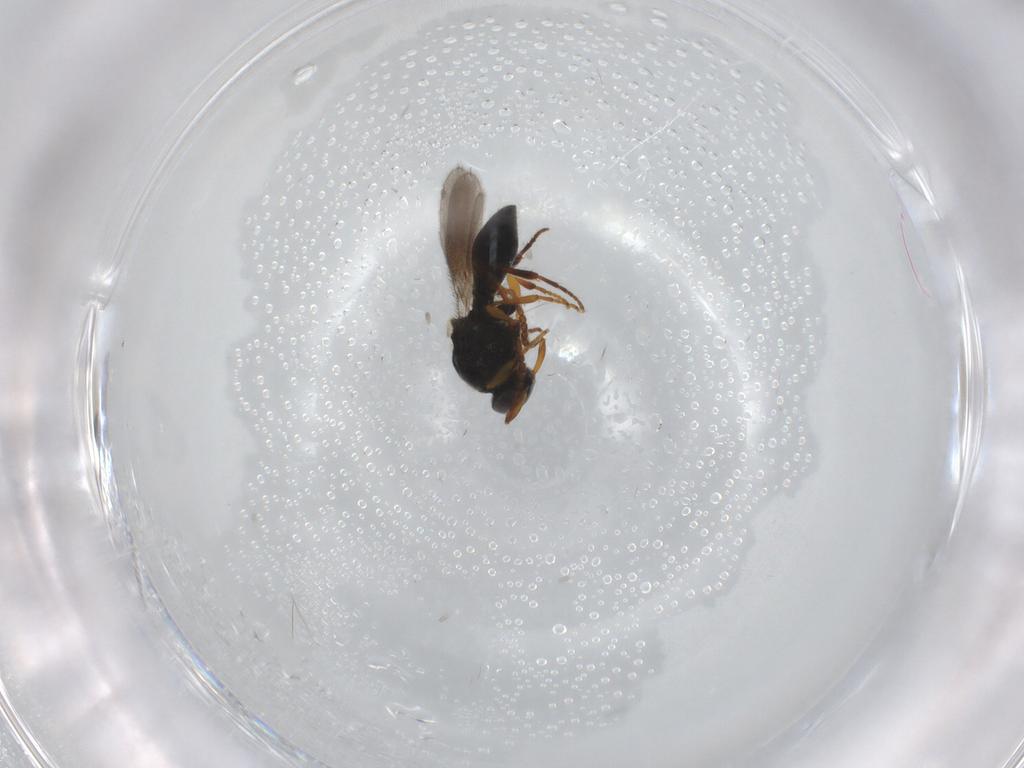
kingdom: Animalia
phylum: Arthropoda
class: Insecta
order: Hymenoptera
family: Platygastridae
